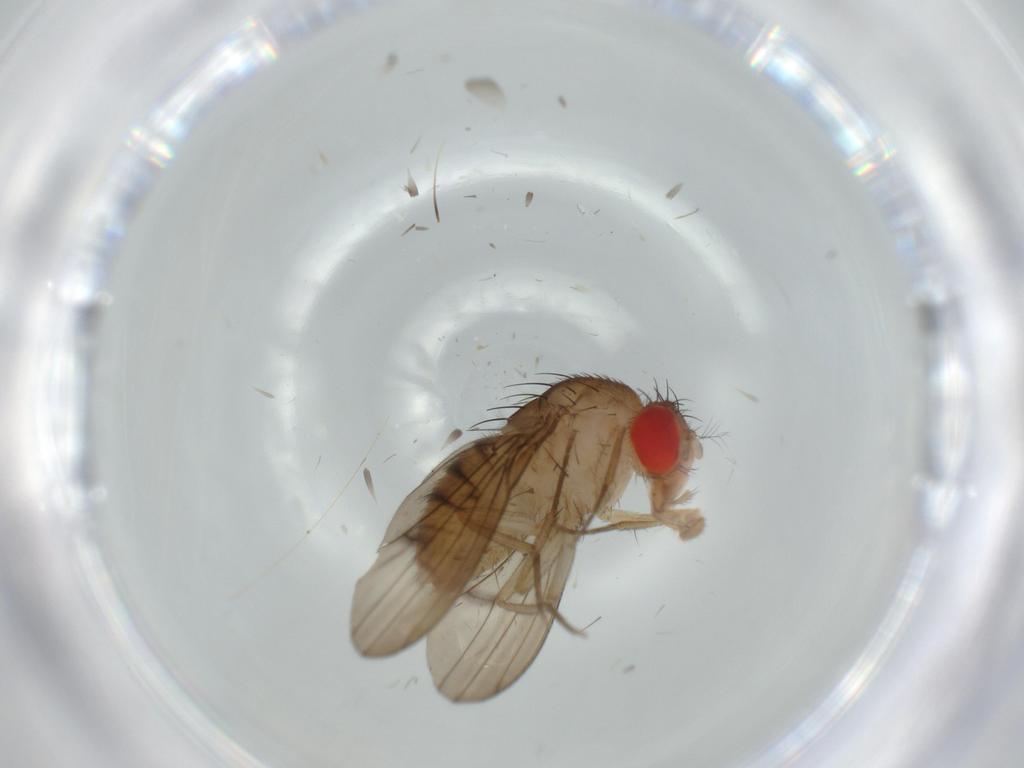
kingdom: Animalia
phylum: Arthropoda
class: Insecta
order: Diptera
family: Drosophilidae
